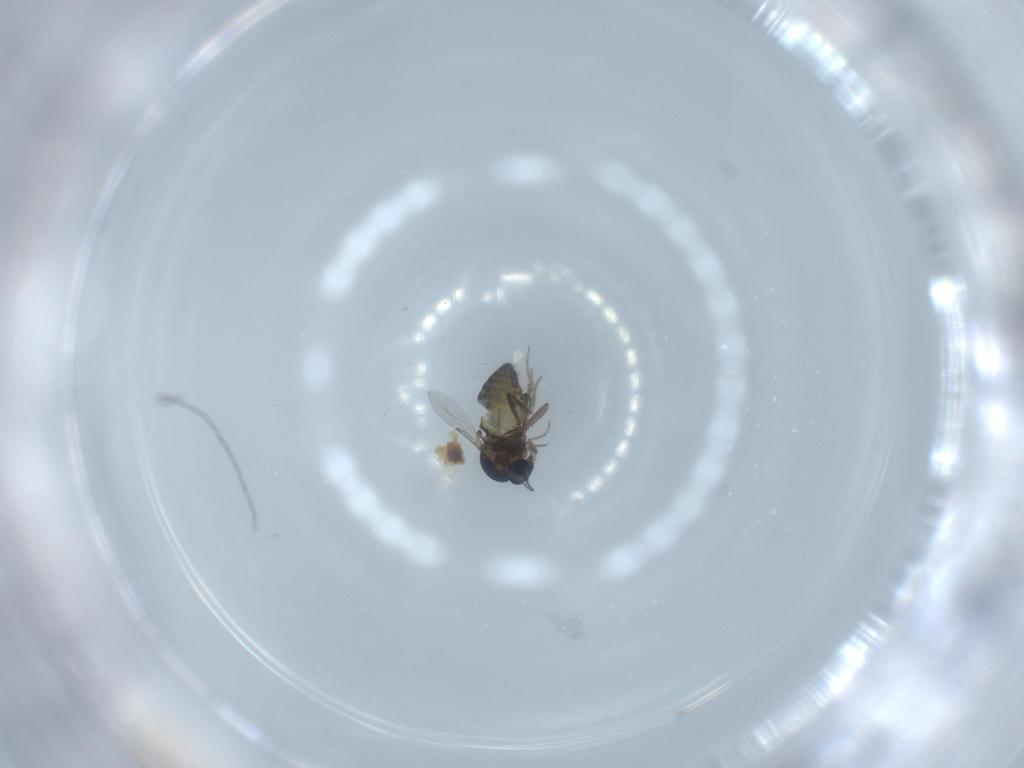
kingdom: Animalia
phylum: Arthropoda
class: Insecta
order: Diptera
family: Chironomidae
